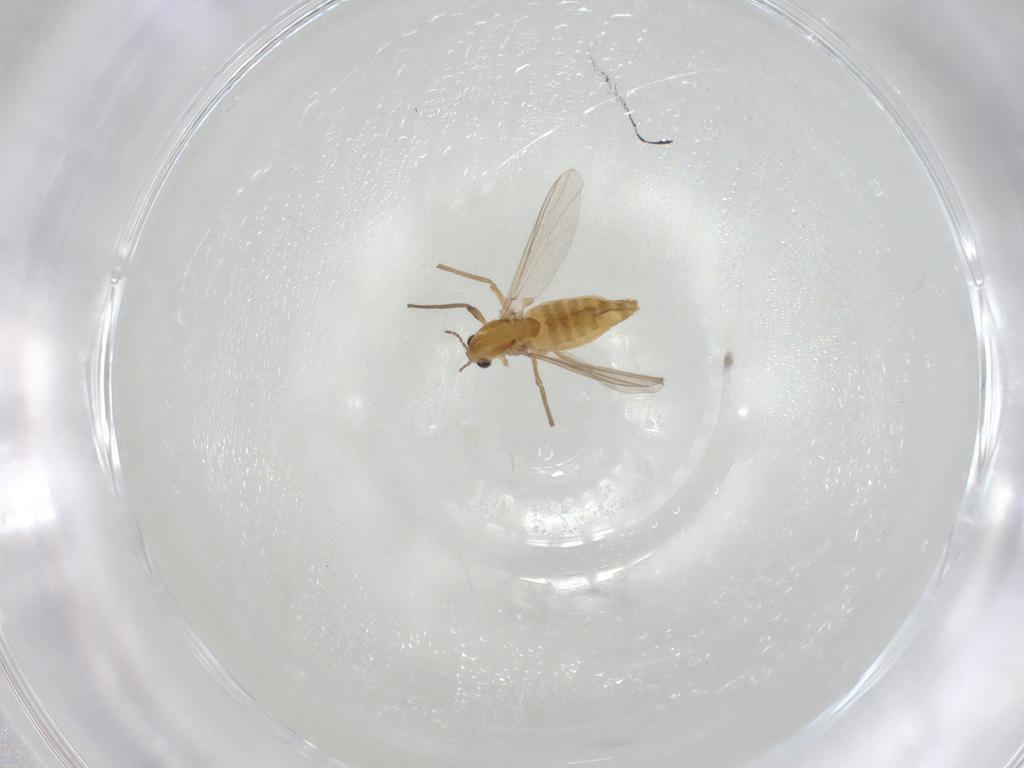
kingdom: Animalia
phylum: Arthropoda
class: Insecta
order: Diptera
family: Chironomidae
